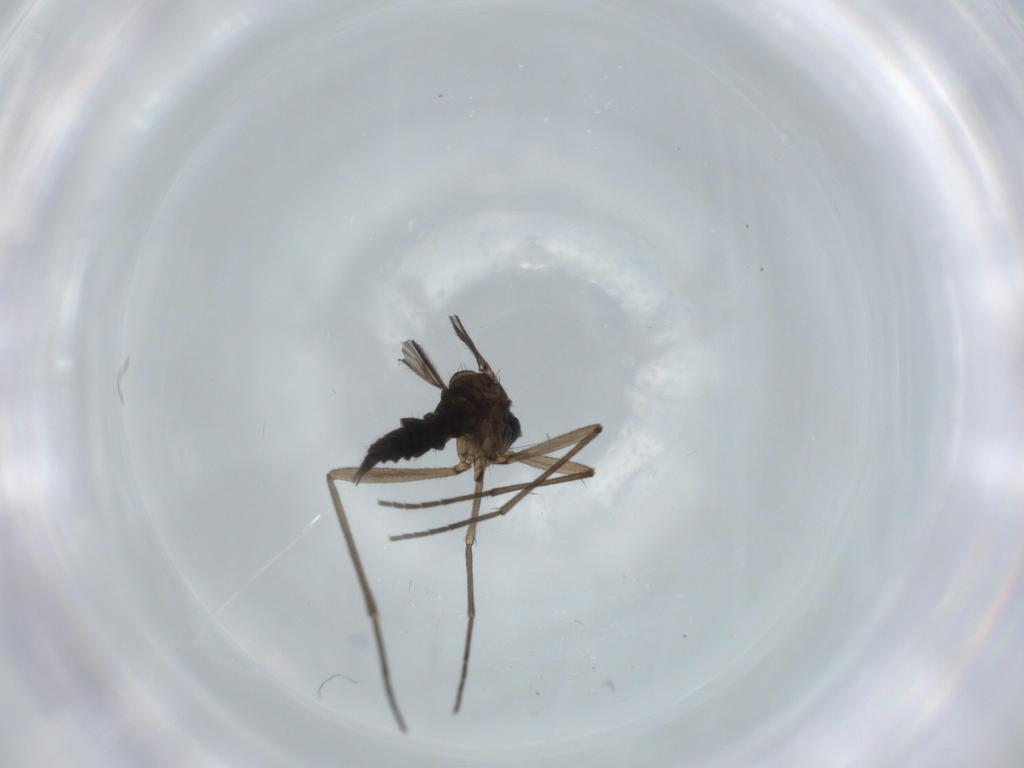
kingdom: Animalia
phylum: Arthropoda
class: Insecta
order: Diptera
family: Sciaridae
